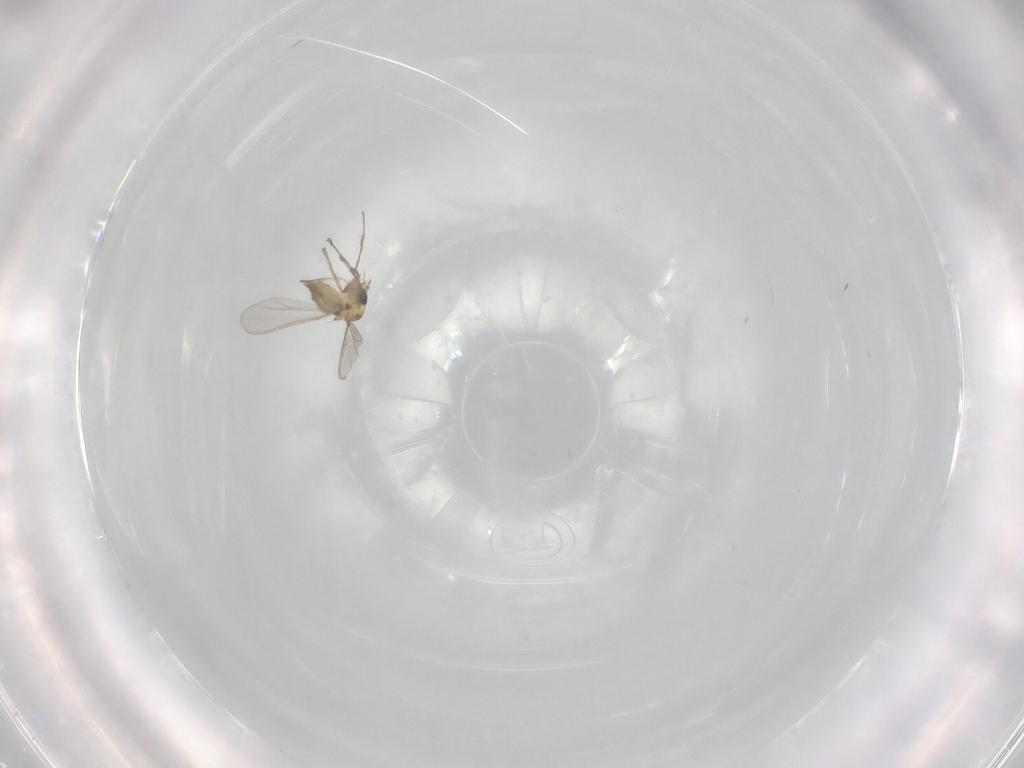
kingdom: Animalia
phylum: Arthropoda
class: Insecta
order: Diptera
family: Chironomidae
